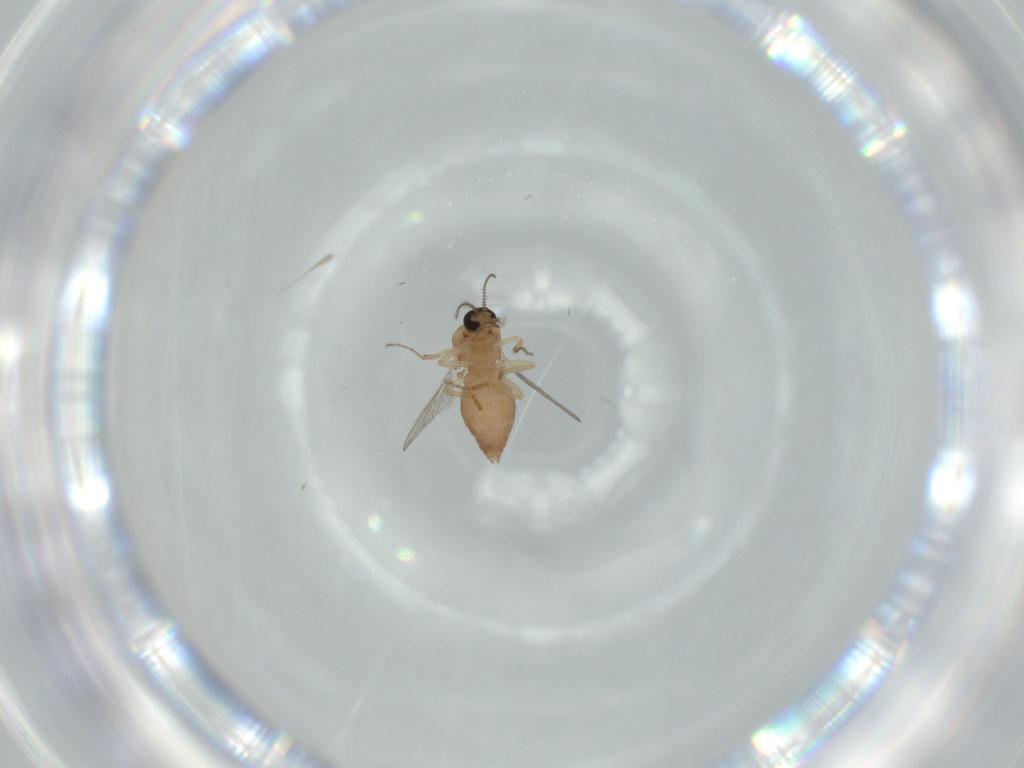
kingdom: Animalia
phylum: Arthropoda
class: Insecta
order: Diptera
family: Ceratopogonidae
